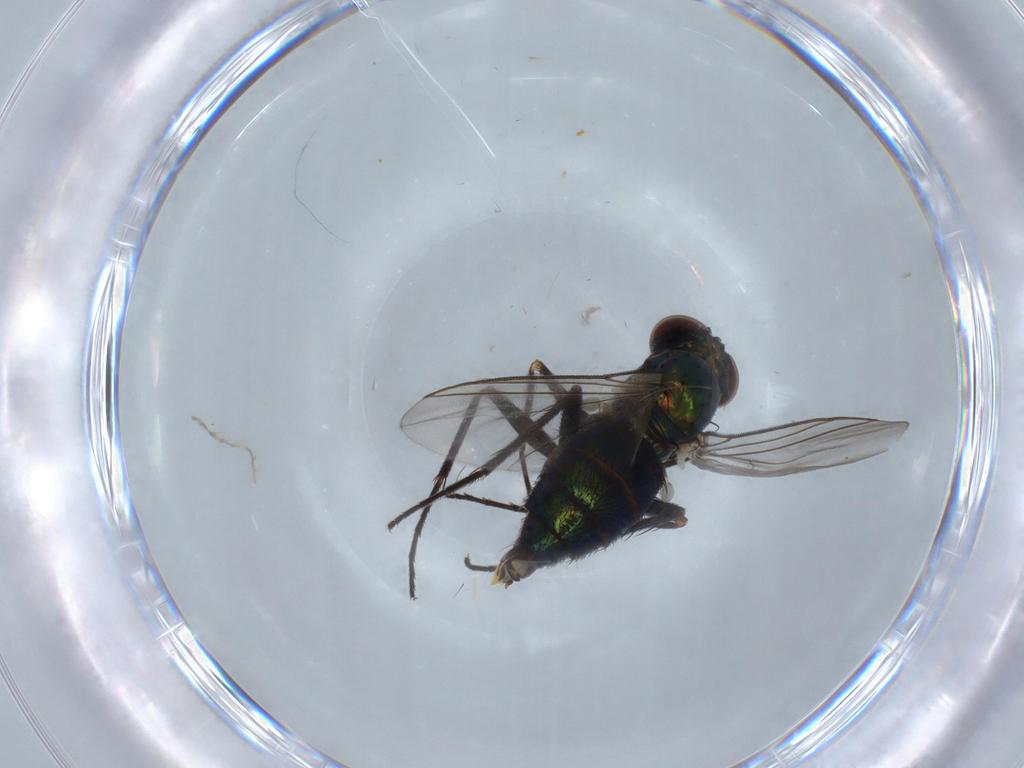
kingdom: Animalia
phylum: Arthropoda
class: Insecta
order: Diptera
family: Dolichopodidae
